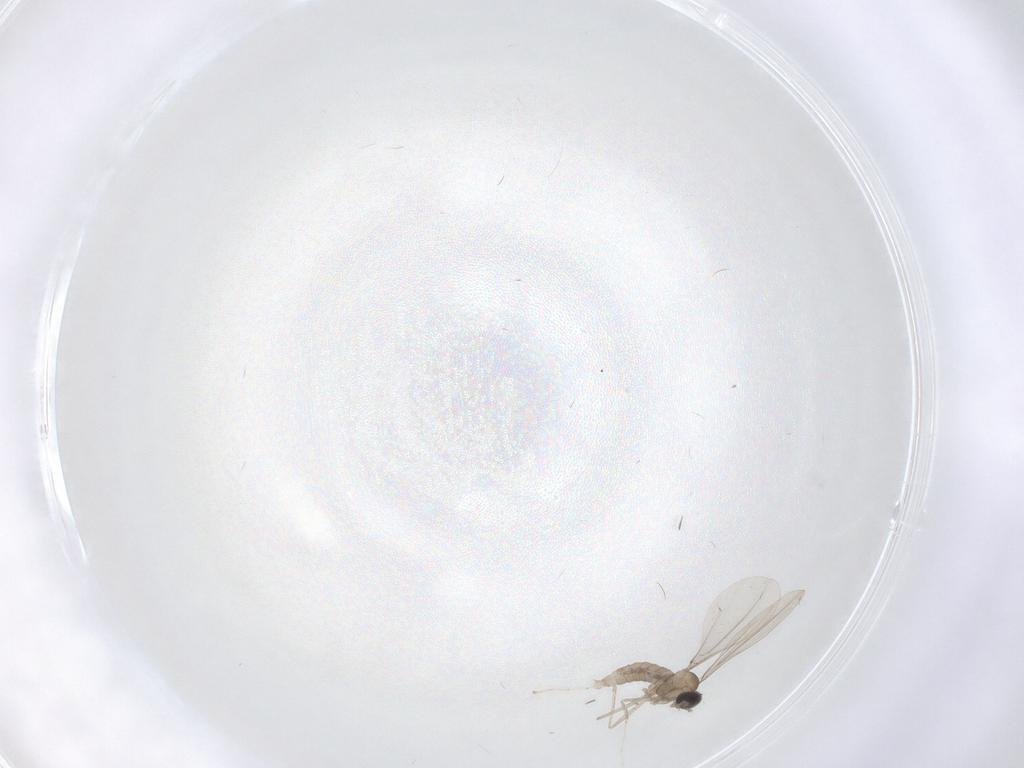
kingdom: Animalia
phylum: Arthropoda
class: Insecta
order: Diptera
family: Cecidomyiidae
